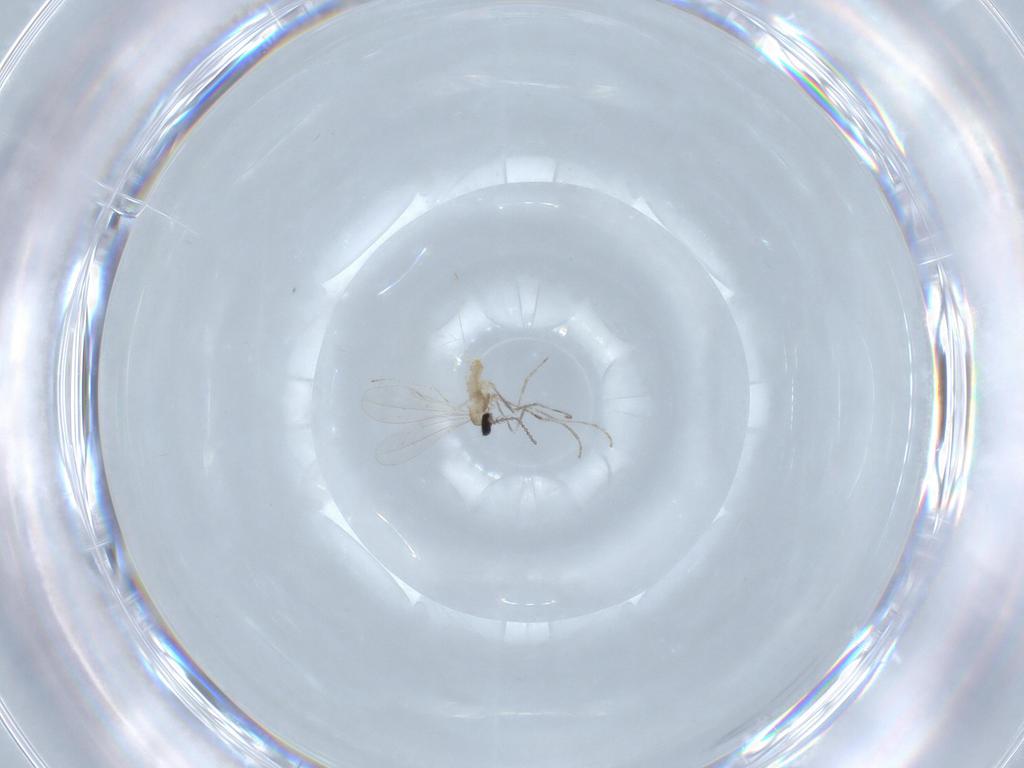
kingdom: Animalia
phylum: Arthropoda
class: Insecta
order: Diptera
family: Cecidomyiidae
